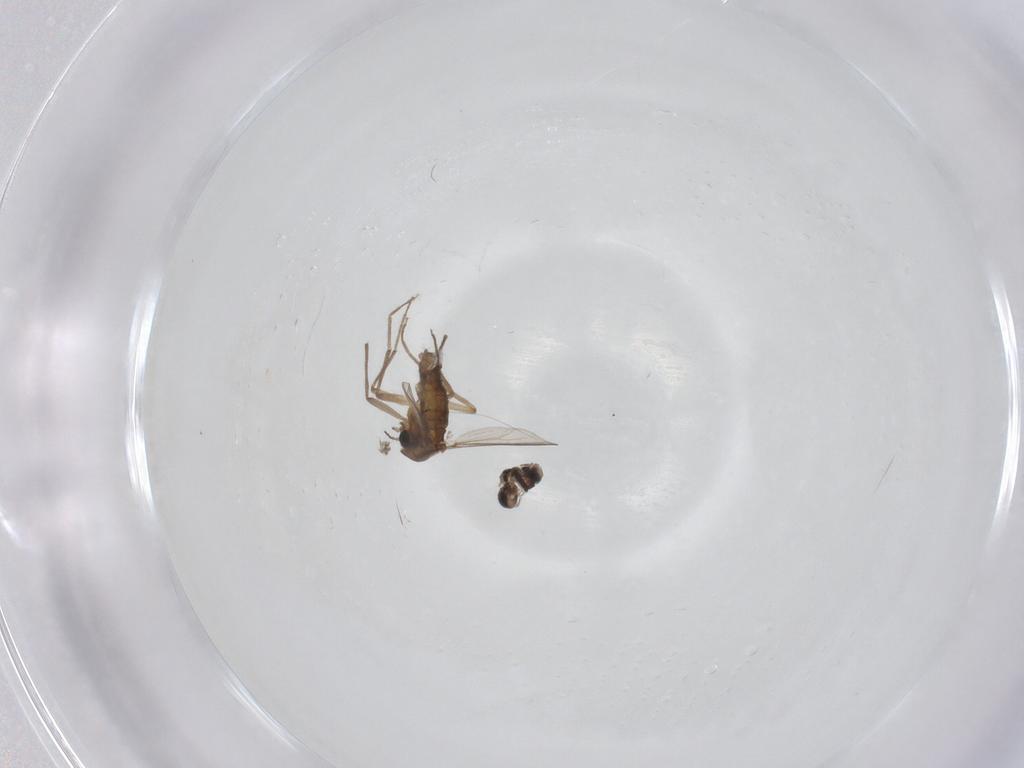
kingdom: Animalia
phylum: Arthropoda
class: Insecta
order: Diptera
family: Chironomidae
